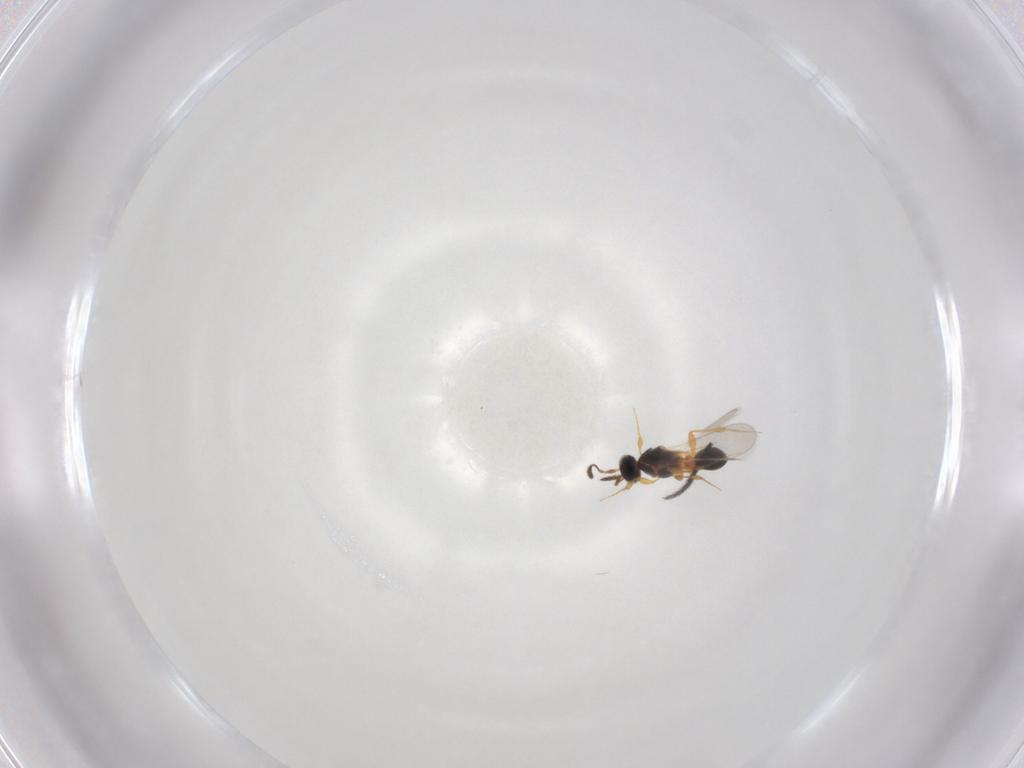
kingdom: Animalia
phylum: Arthropoda
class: Insecta
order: Hymenoptera
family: Platygastridae
